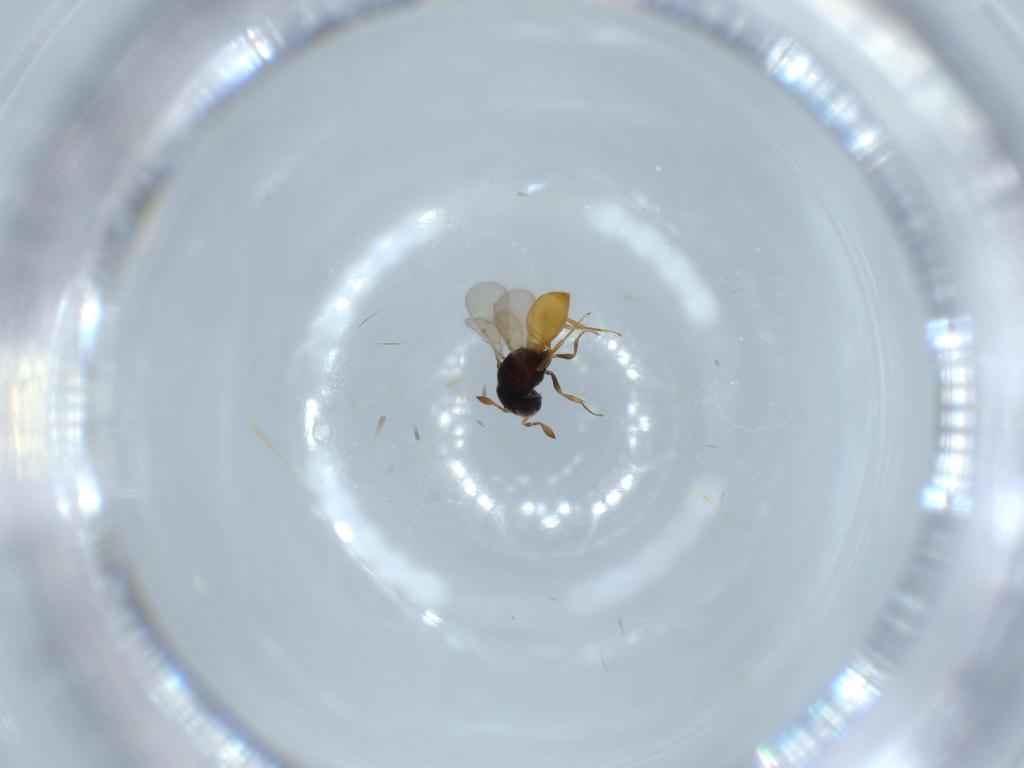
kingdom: Animalia
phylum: Arthropoda
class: Insecta
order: Hymenoptera
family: Scelionidae
